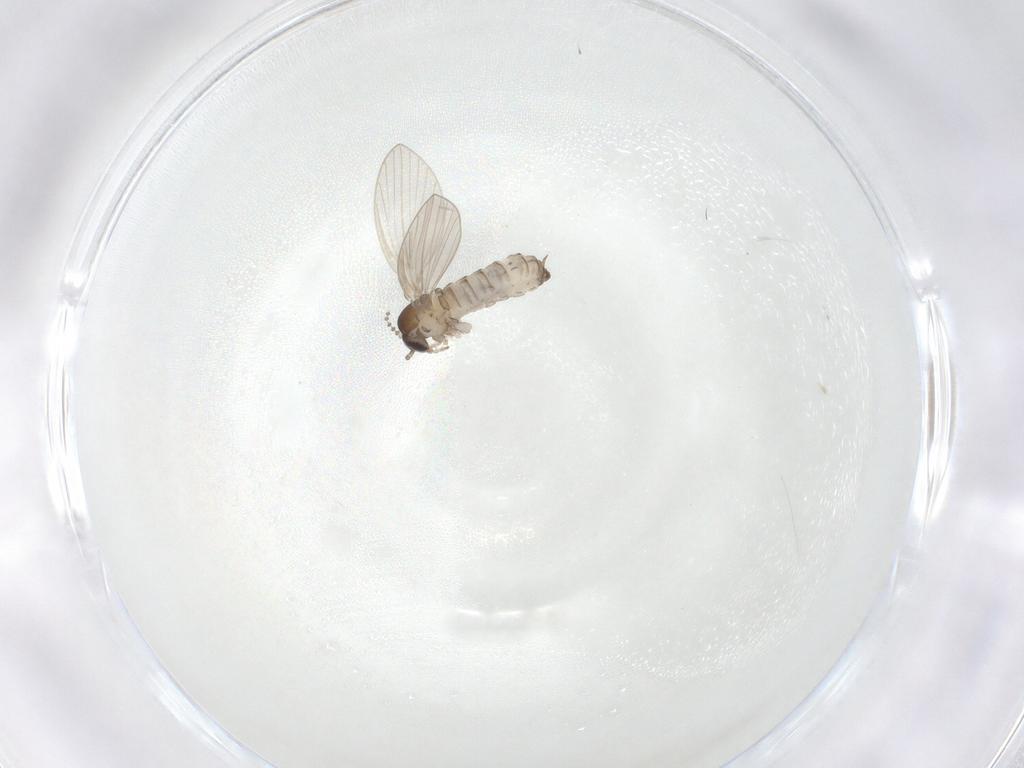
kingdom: Animalia
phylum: Arthropoda
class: Insecta
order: Diptera
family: Psychodidae
